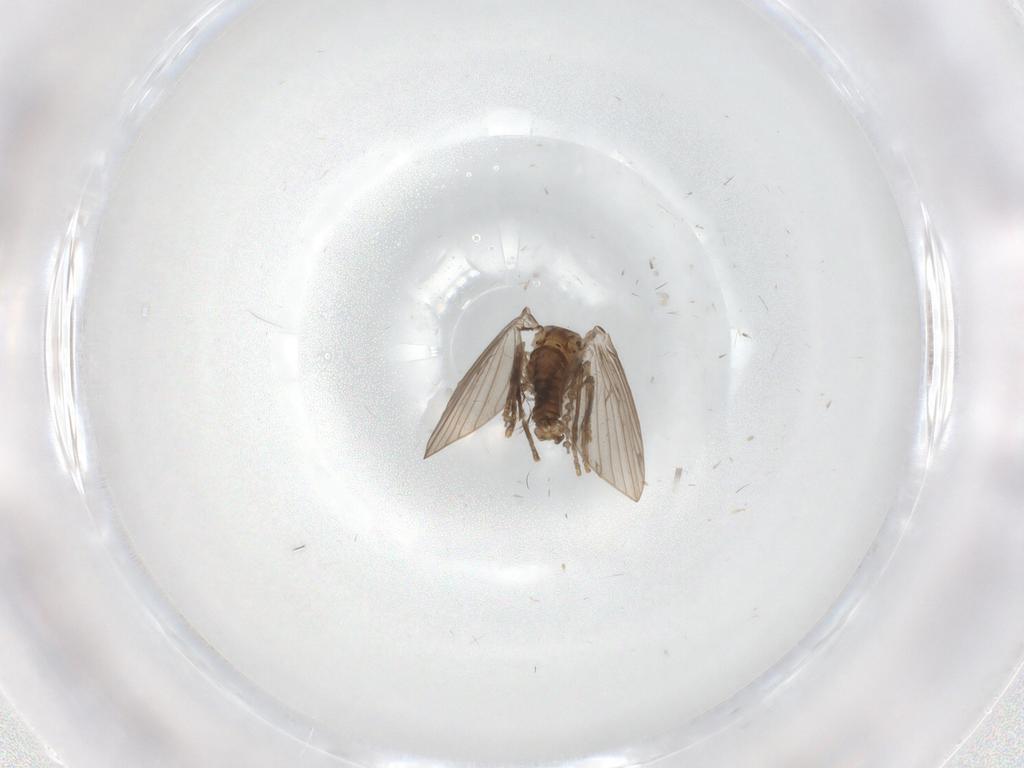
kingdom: Animalia
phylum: Arthropoda
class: Insecta
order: Diptera
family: Psychodidae
